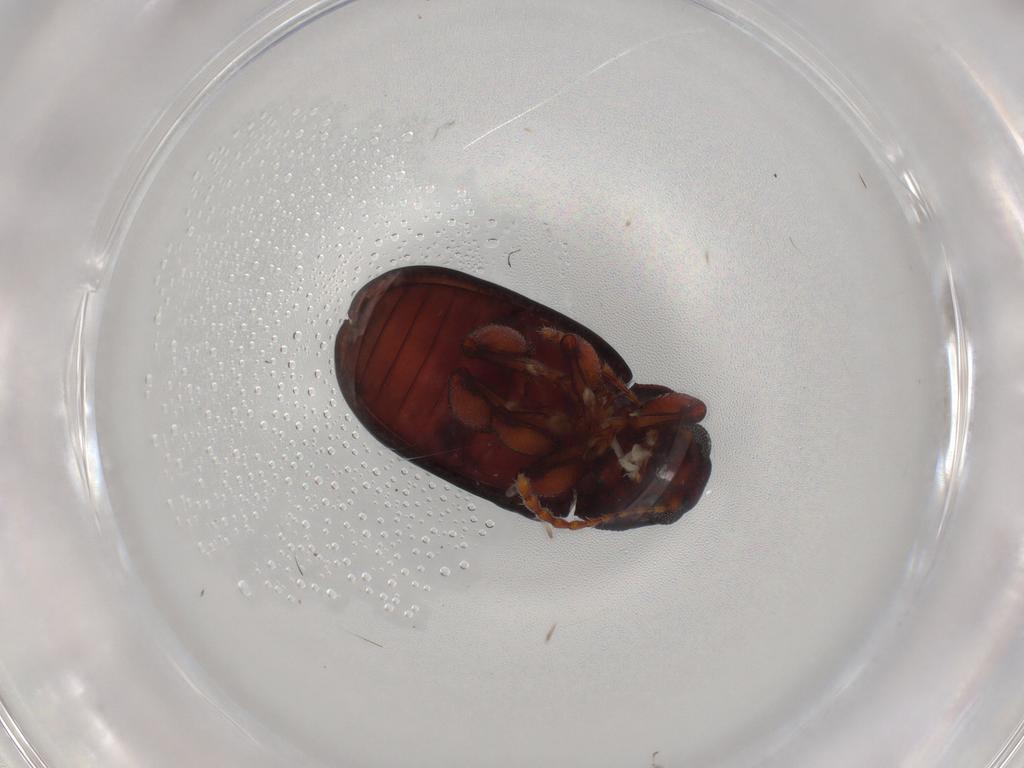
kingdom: Animalia
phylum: Arthropoda
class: Insecta
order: Coleoptera
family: Chrysomelidae
